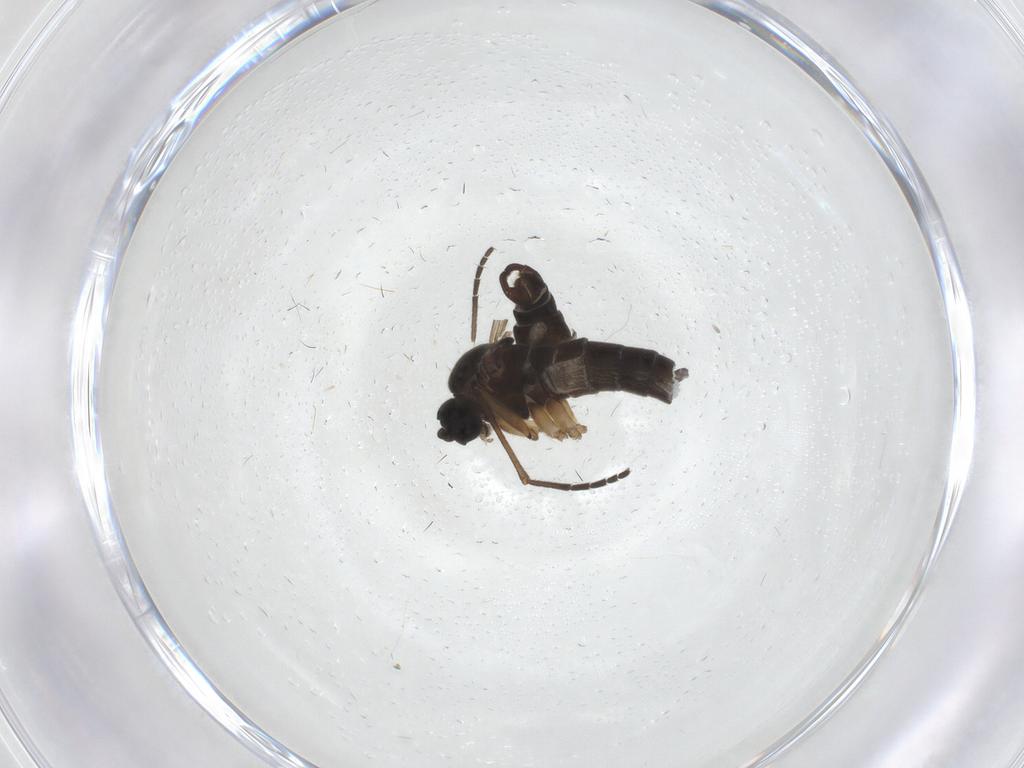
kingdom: Animalia
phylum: Arthropoda
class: Insecta
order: Diptera
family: Sciaridae
